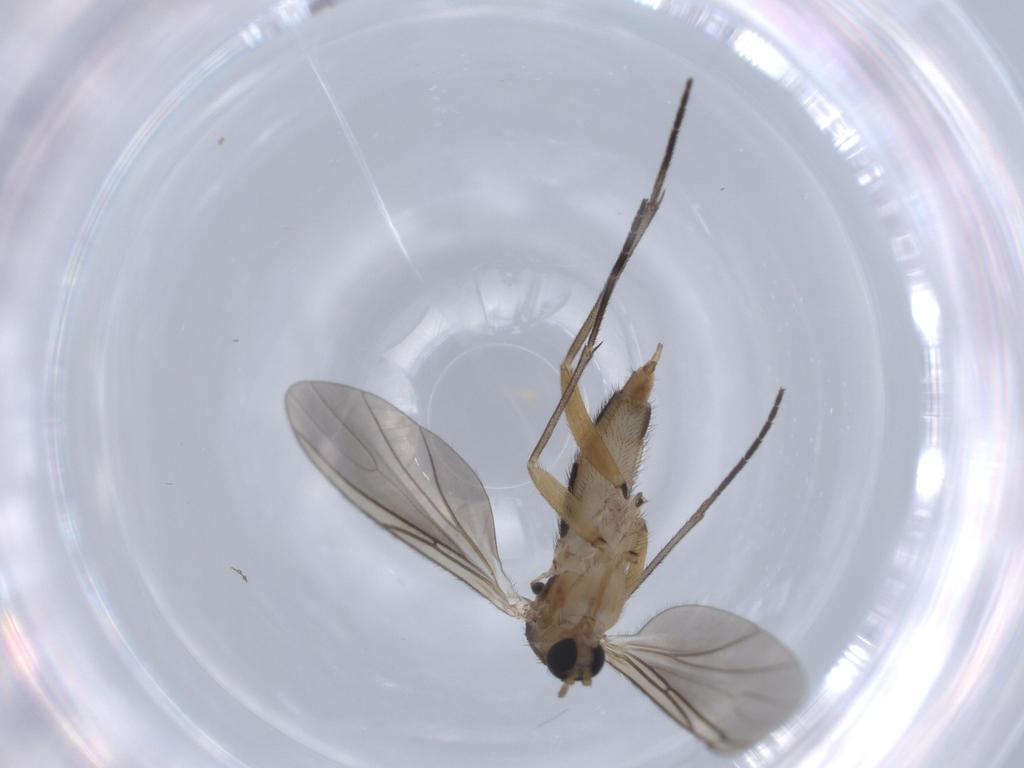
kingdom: Animalia
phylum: Arthropoda
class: Insecta
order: Diptera
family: Sciaridae
